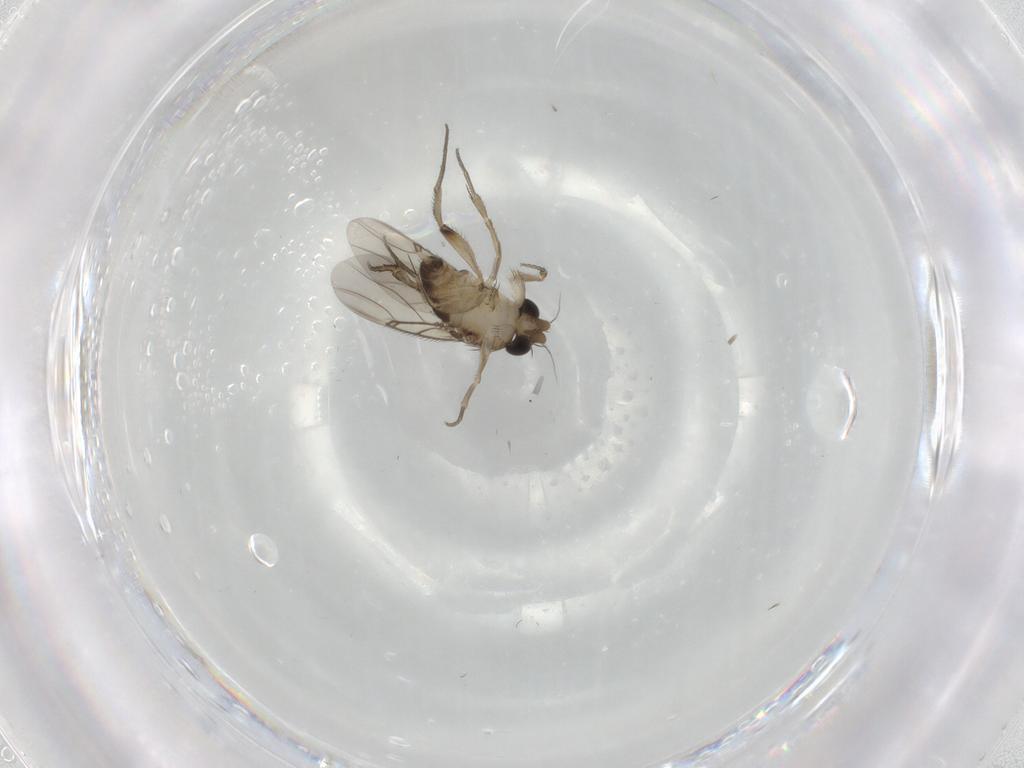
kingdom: Animalia
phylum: Arthropoda
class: Insecta
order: Diptera
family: Phoridae
